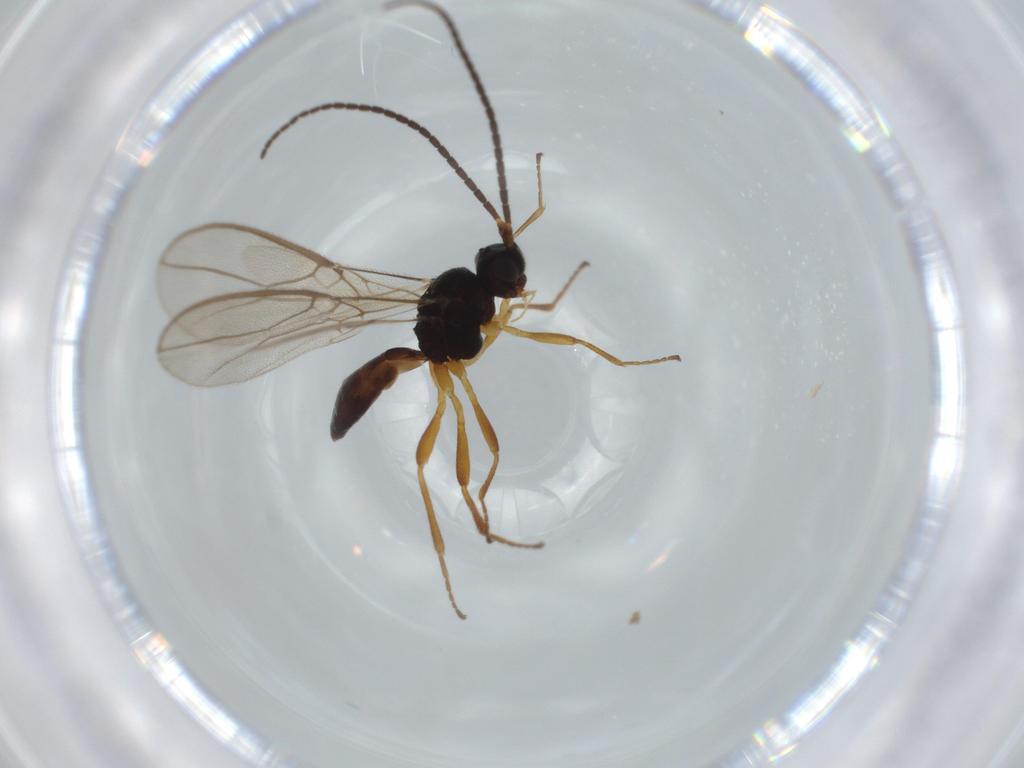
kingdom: Animalia
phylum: Arthropoda
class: Insecta
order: Hymenoptera
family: Braconidae
